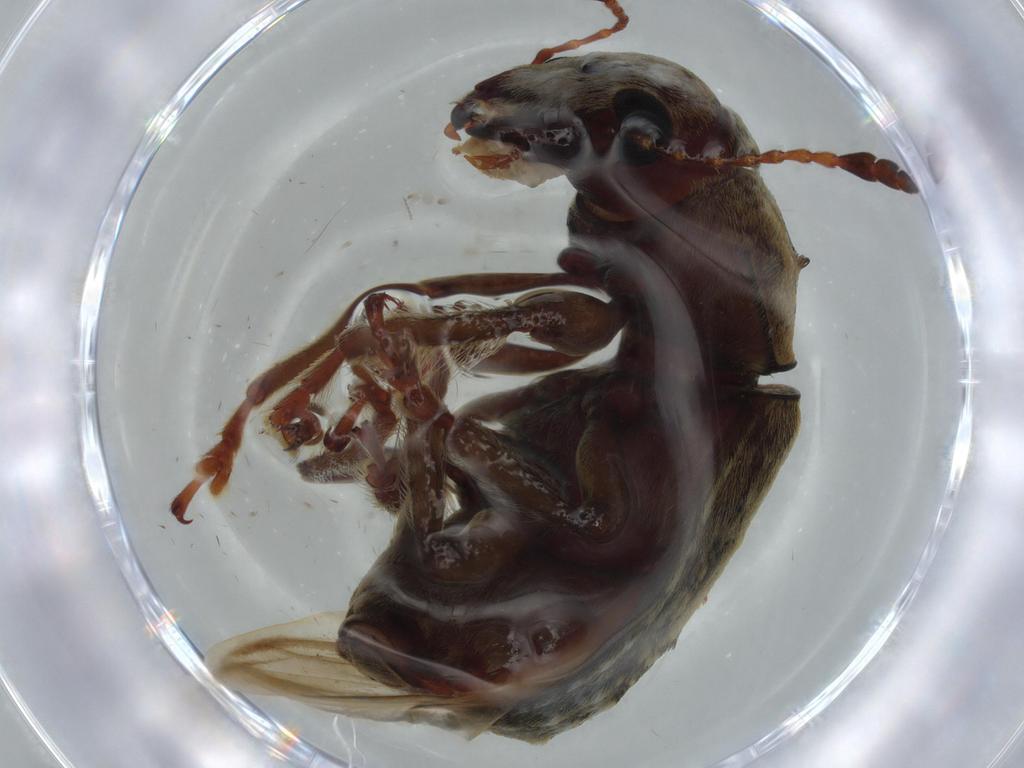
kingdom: Animalia
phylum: Arthropoda
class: Insecta
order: Coleoptera
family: Anthribidae
